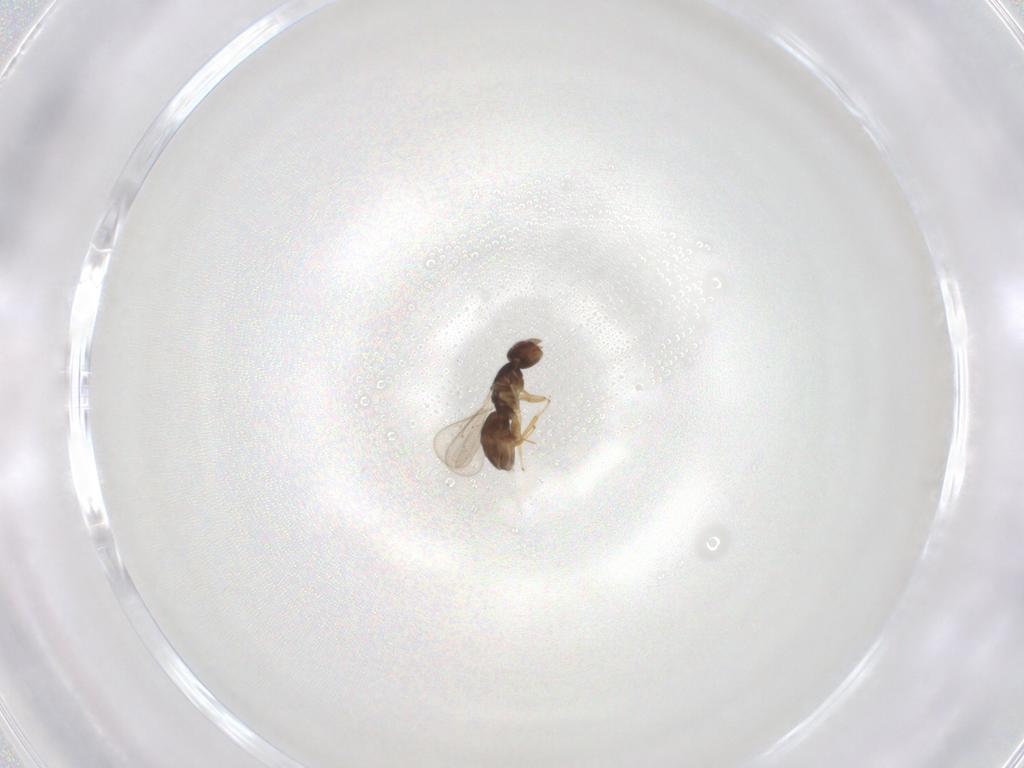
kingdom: Animalia
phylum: Arthropoda
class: Insecta
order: Hymenoptera
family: Eulophidae
